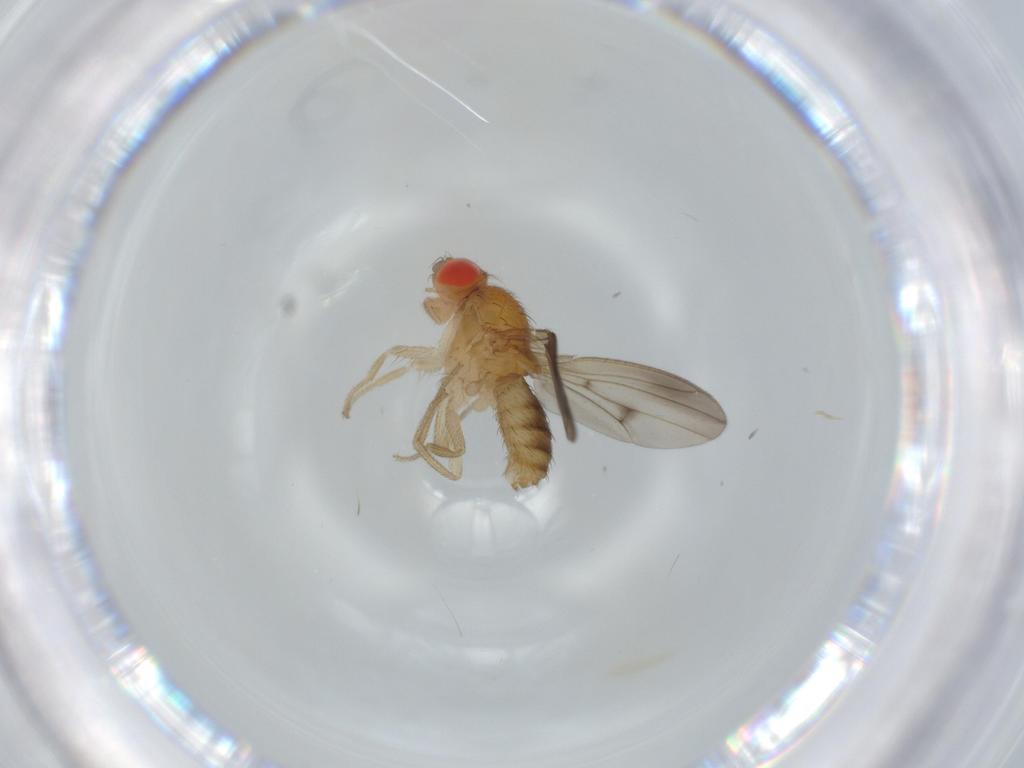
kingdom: Animalia
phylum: Arthropoda
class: Insecta
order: Diptera
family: Drosophilidae
